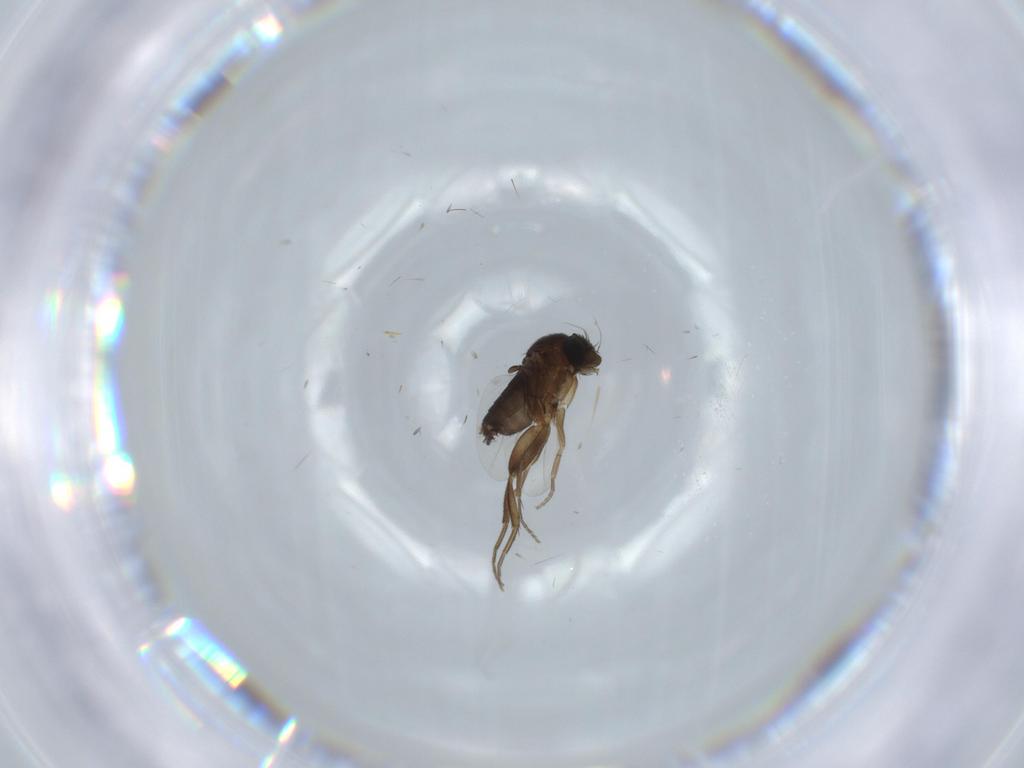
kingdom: Animalia
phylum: Arthropoda
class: Insecta
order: Diptera
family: Phoridae
